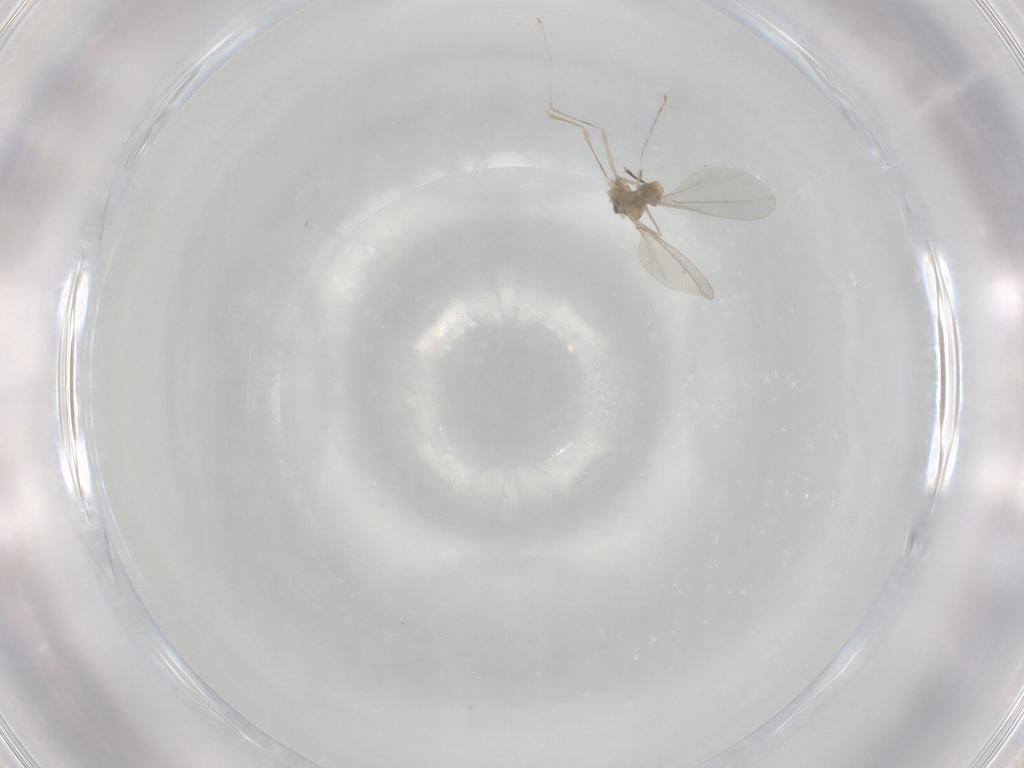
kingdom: Animalia
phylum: Arthropoda
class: Insecta
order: Diptera
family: Cecidomyiidae
